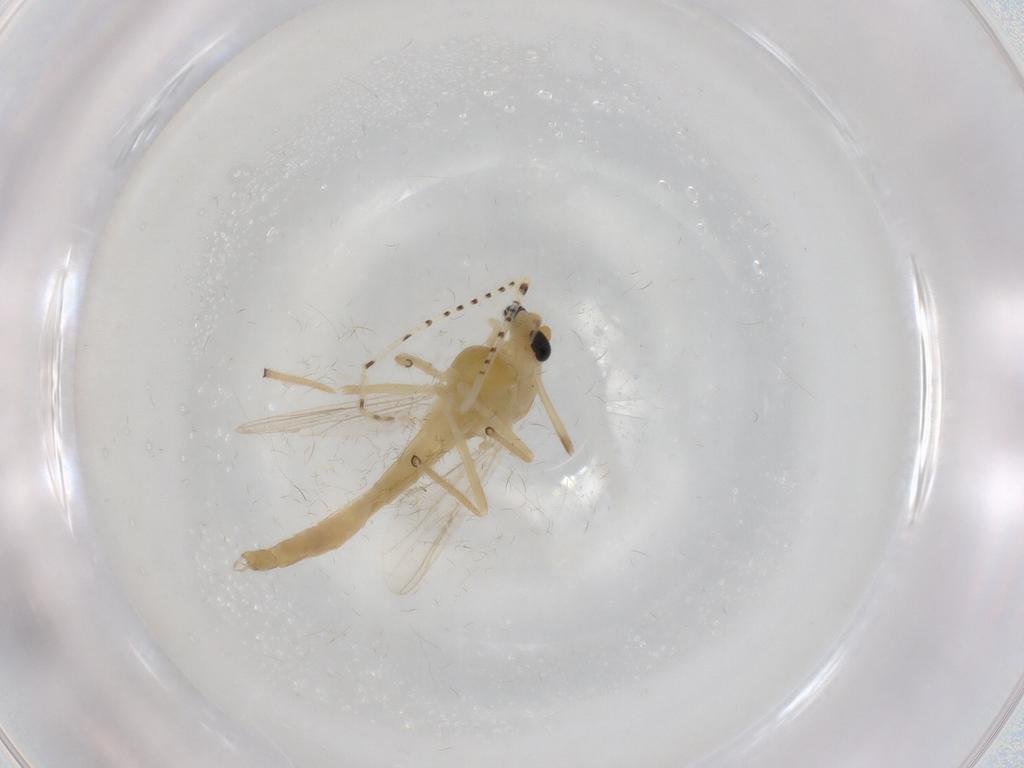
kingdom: Animalia
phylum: Arthropoda
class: Insecta
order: Diptera
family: Chironomidae
